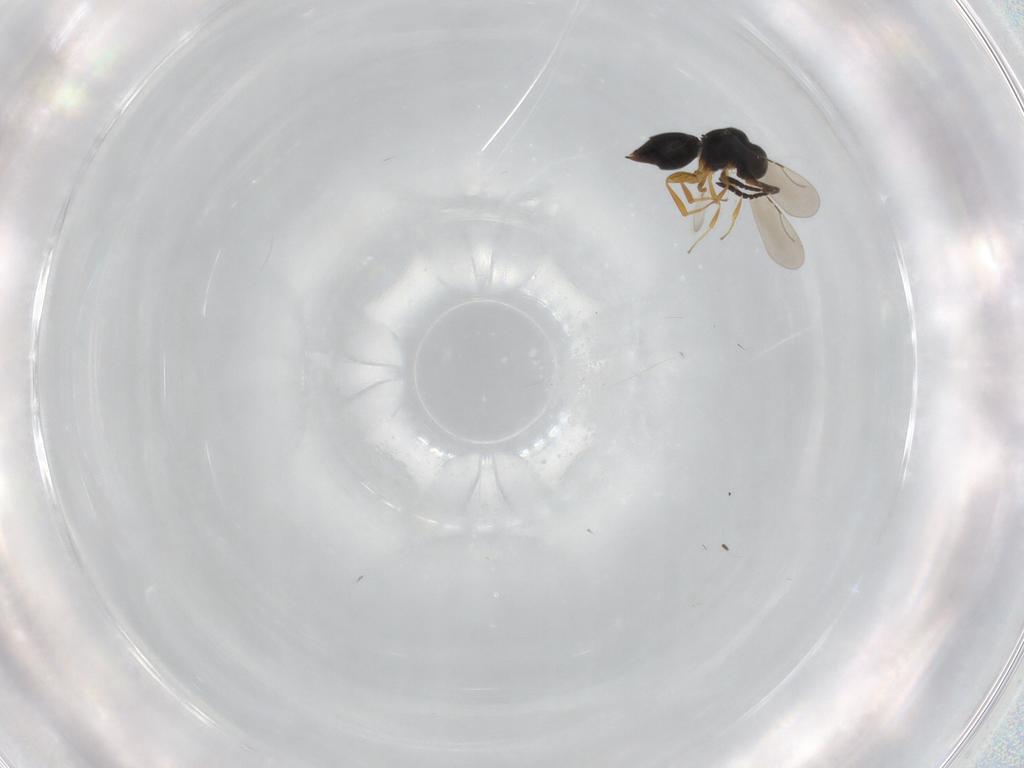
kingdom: Animalia
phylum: Arthropoda
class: Insecta
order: Hymenoptera
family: Ceraphronidae
